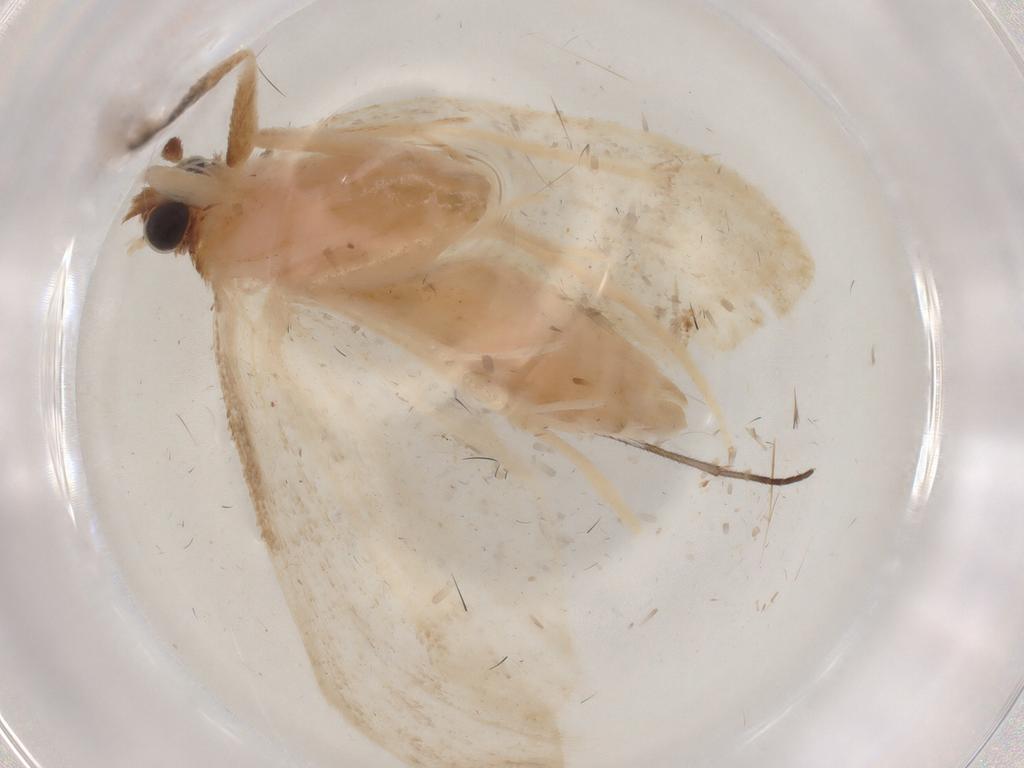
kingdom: Animalia
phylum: Arthropoda
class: Insecta
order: Lepidoptera
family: Crambidae
